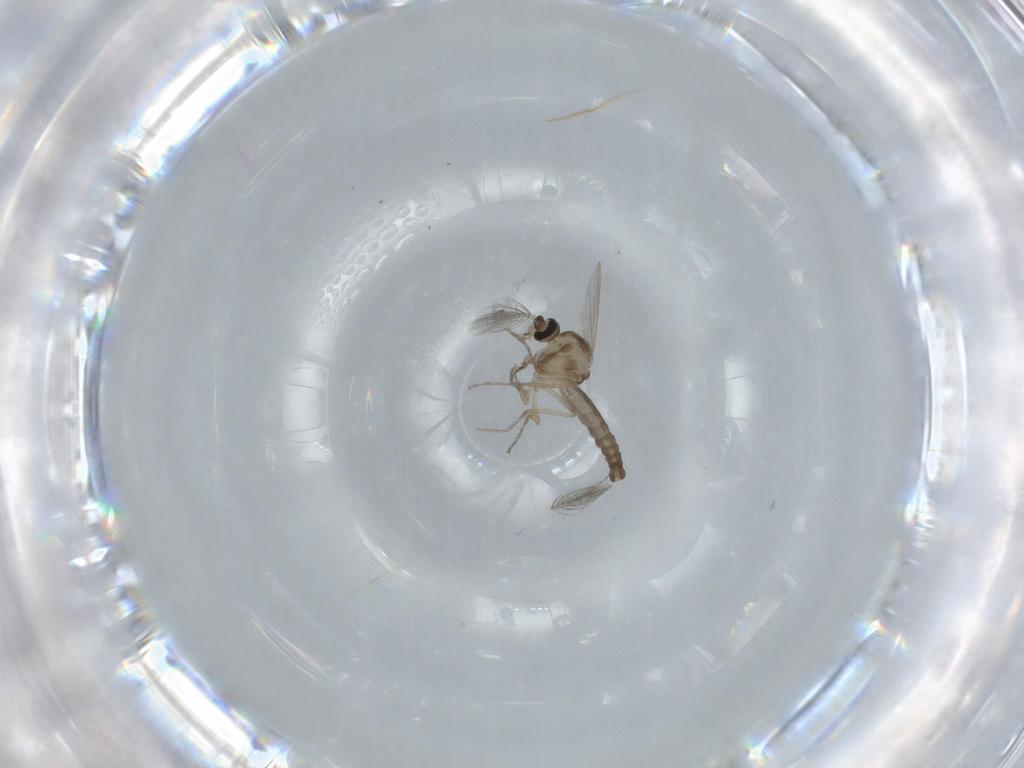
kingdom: Animalia
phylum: Arthropoda
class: Insecta
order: Diptera
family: Ceratopogonidae
